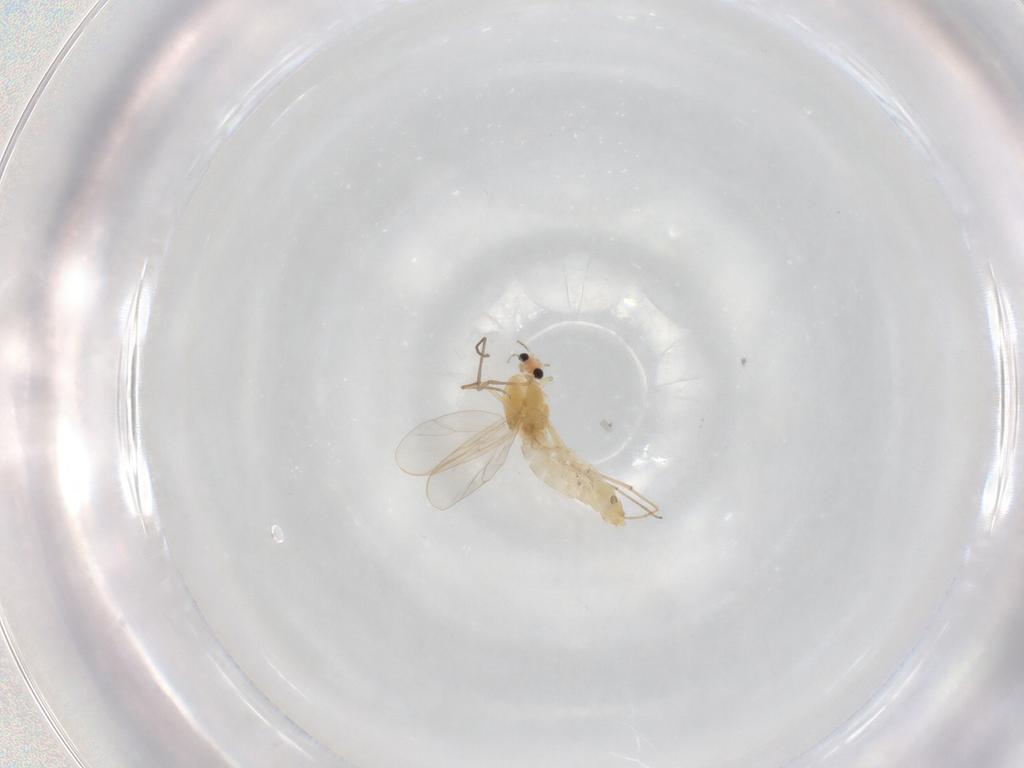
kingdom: Animalia
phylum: Arthropoda
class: Insecta
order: Diptera
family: Chironomidae
